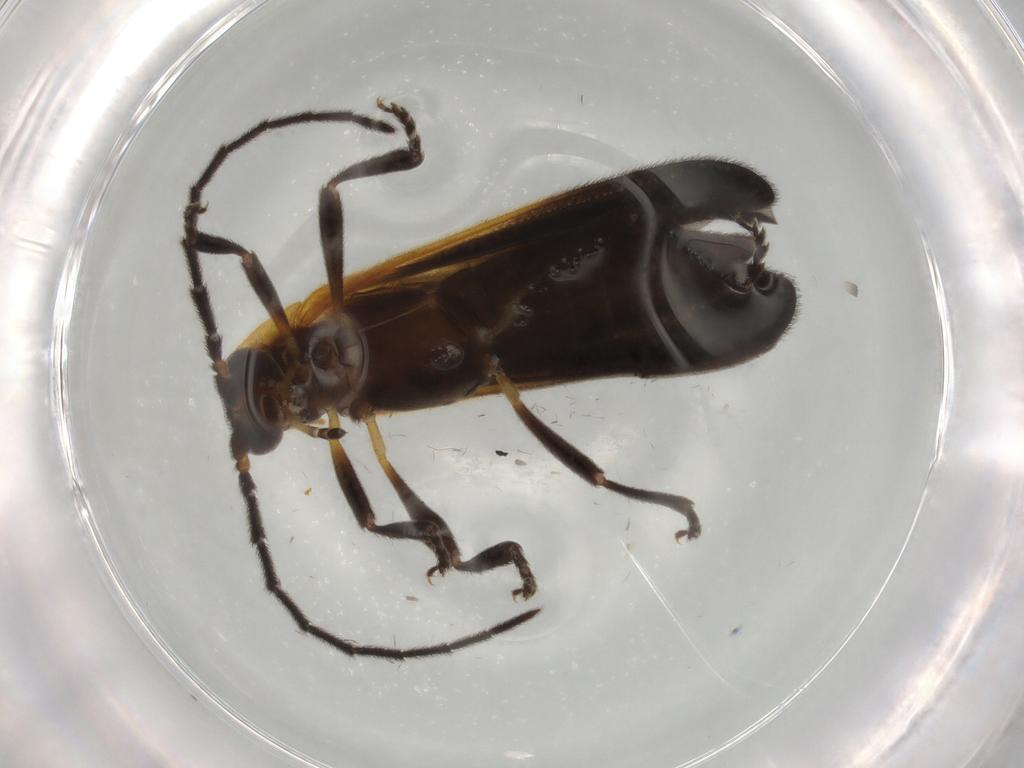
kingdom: Animalia
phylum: Arthropoda
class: Insecta
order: Coleoptera
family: Lycidae
